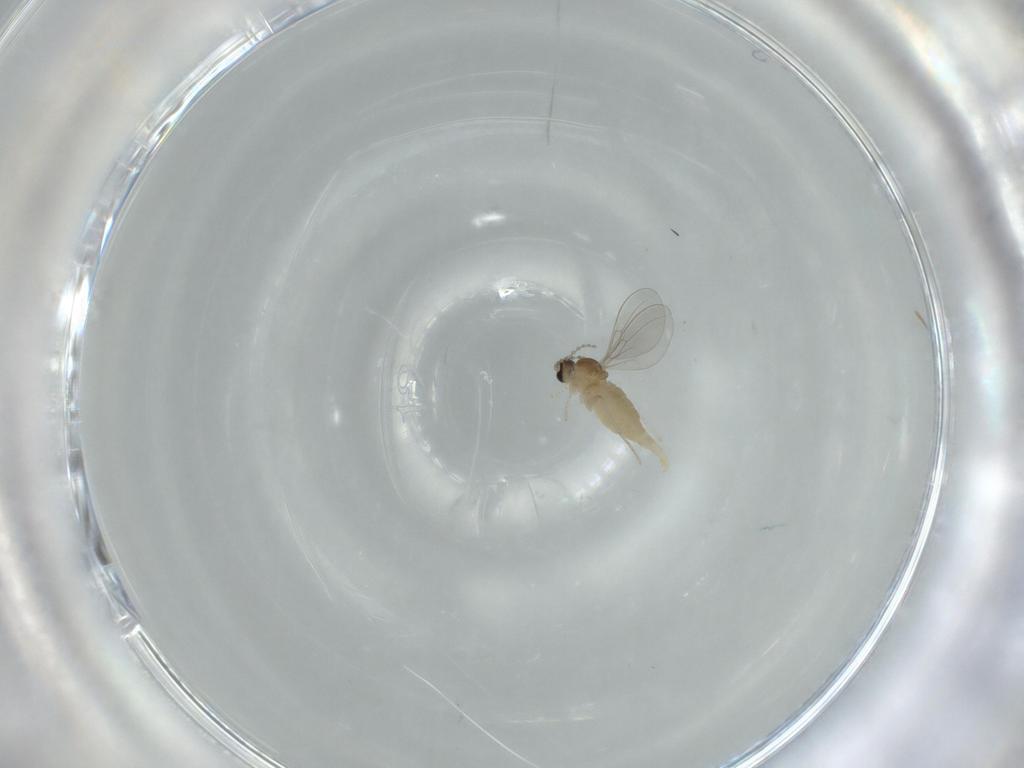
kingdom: Animalia
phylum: Arthropoda
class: Insecta
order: Diptera
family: Cecidomyiidae
